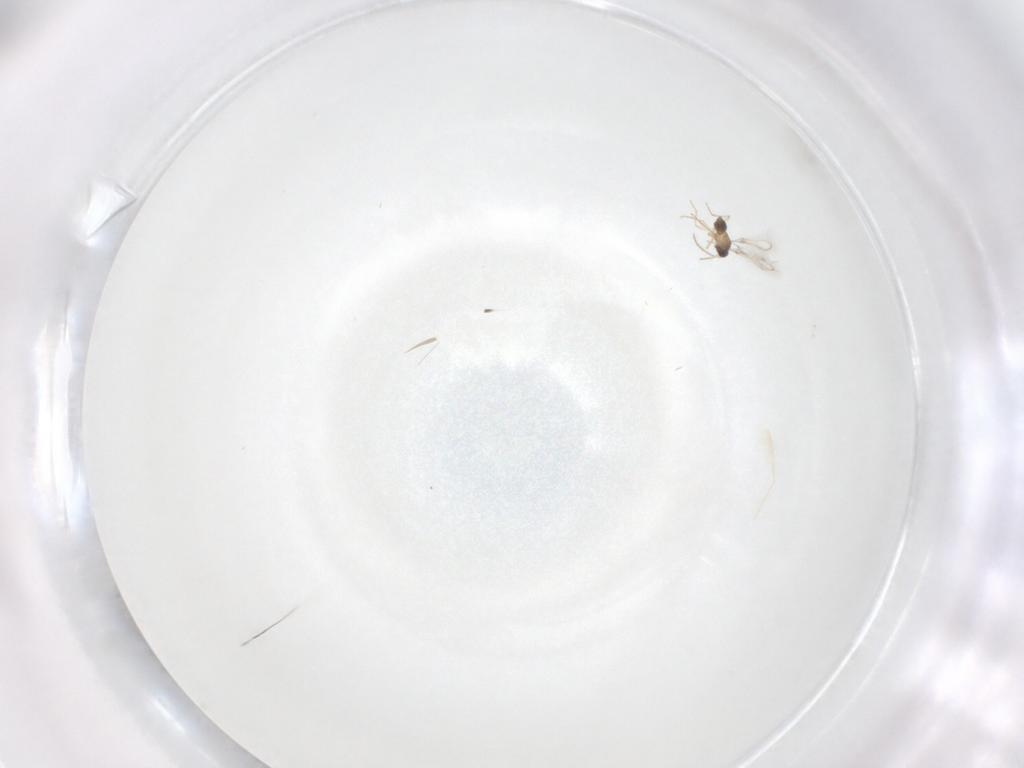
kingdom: Animalia
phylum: Arthropoda
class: Insecta
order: Hymenoptera
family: Mymaridae
